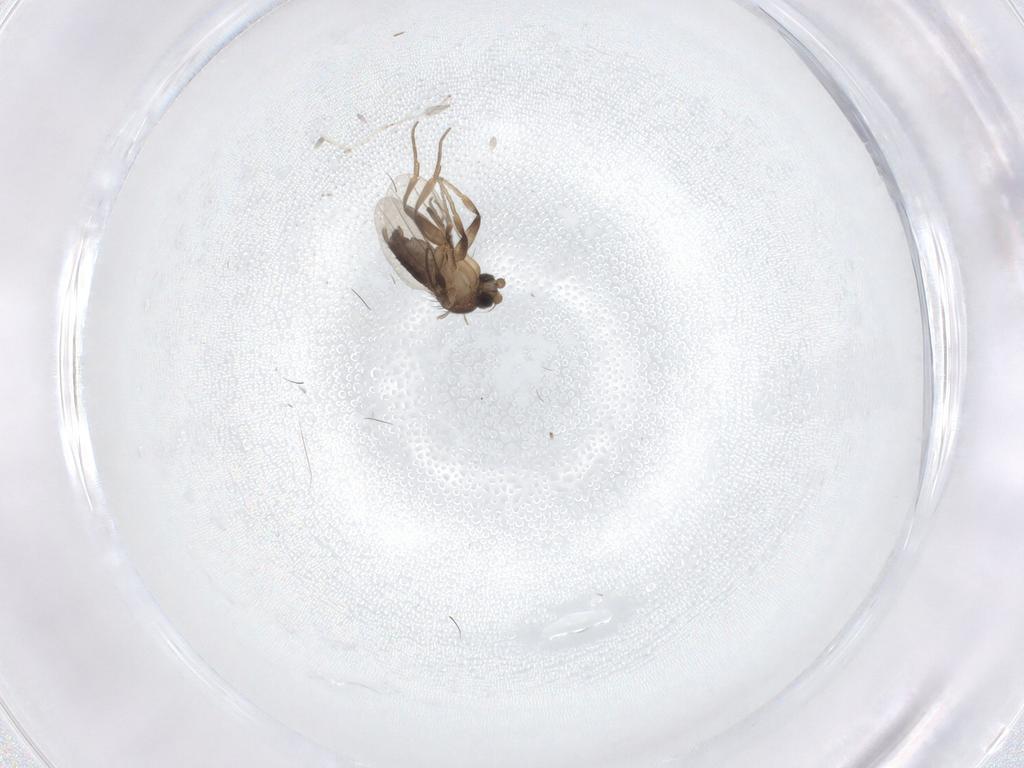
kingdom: Animalia
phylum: Arthropoda
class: Insecta
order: Diptera
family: Phoridae
